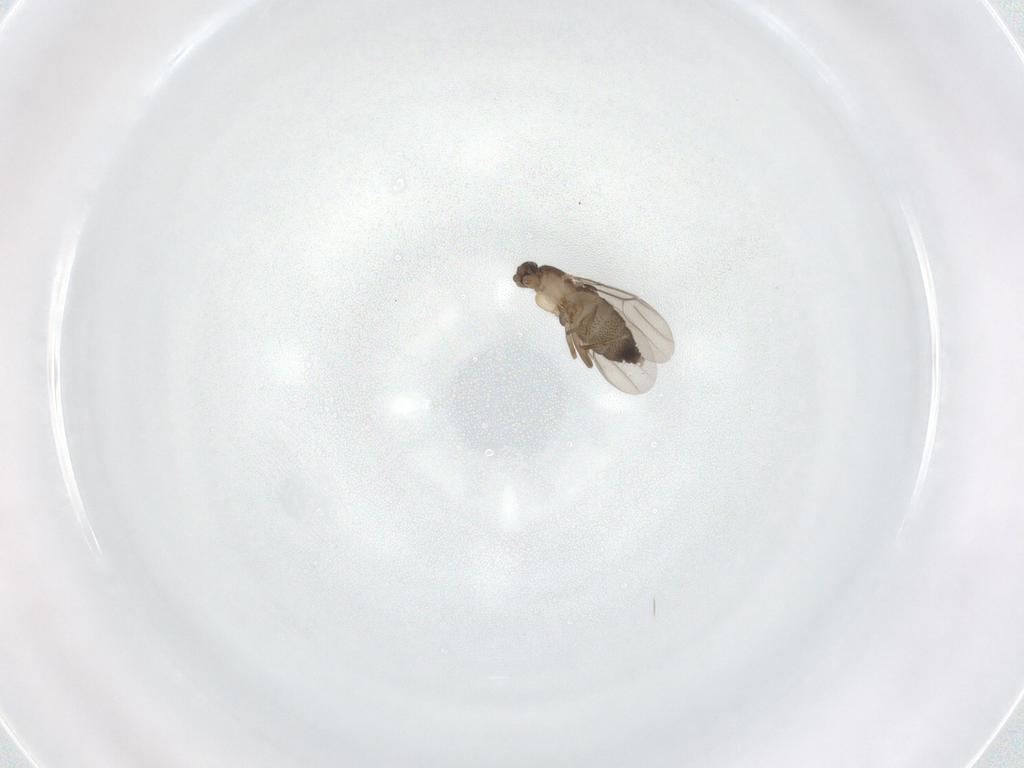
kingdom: Animalia
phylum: Arthropoda
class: Insecta
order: Diptera
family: Phoridae
